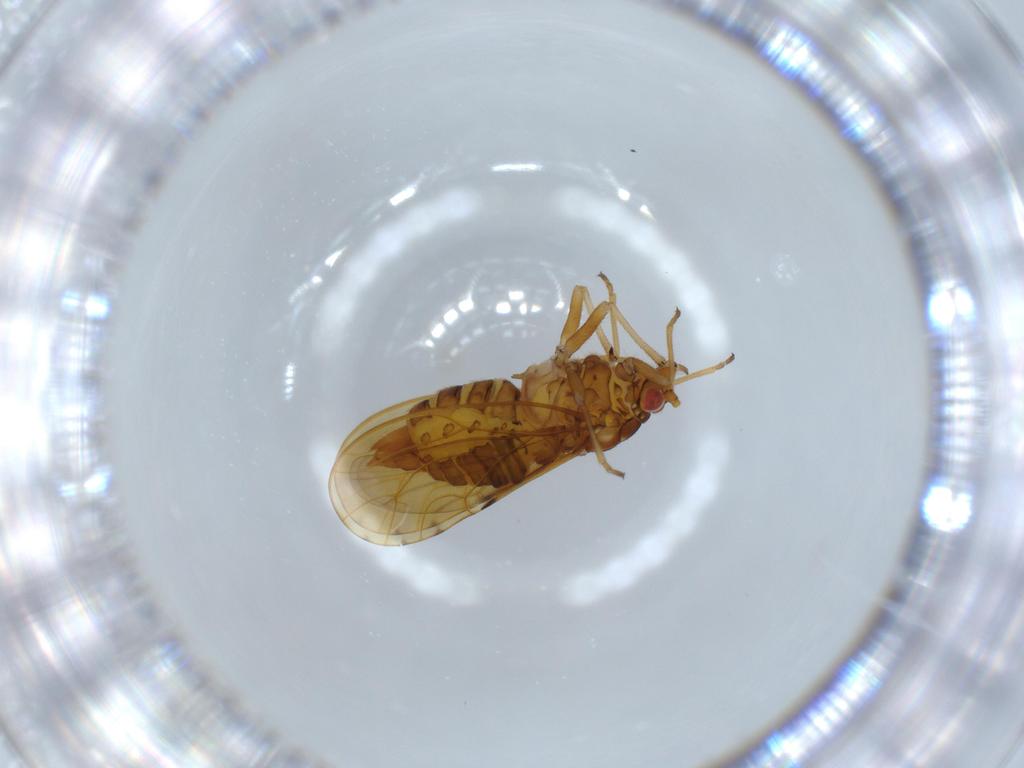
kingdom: Animalia
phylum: Arthropoda
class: Insecta
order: Hemiptera
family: Psylloidea_incertae_sedis
